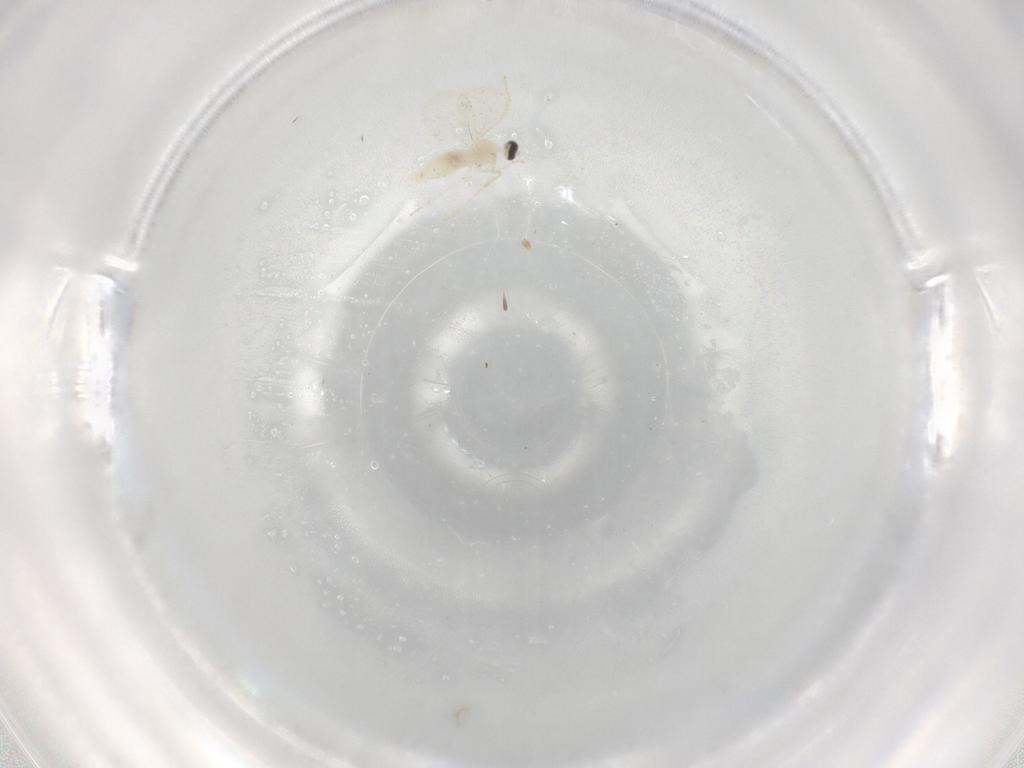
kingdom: Animalia
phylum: Arthropoda
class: Insecta
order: Diptera
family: Cecidomyiidae
